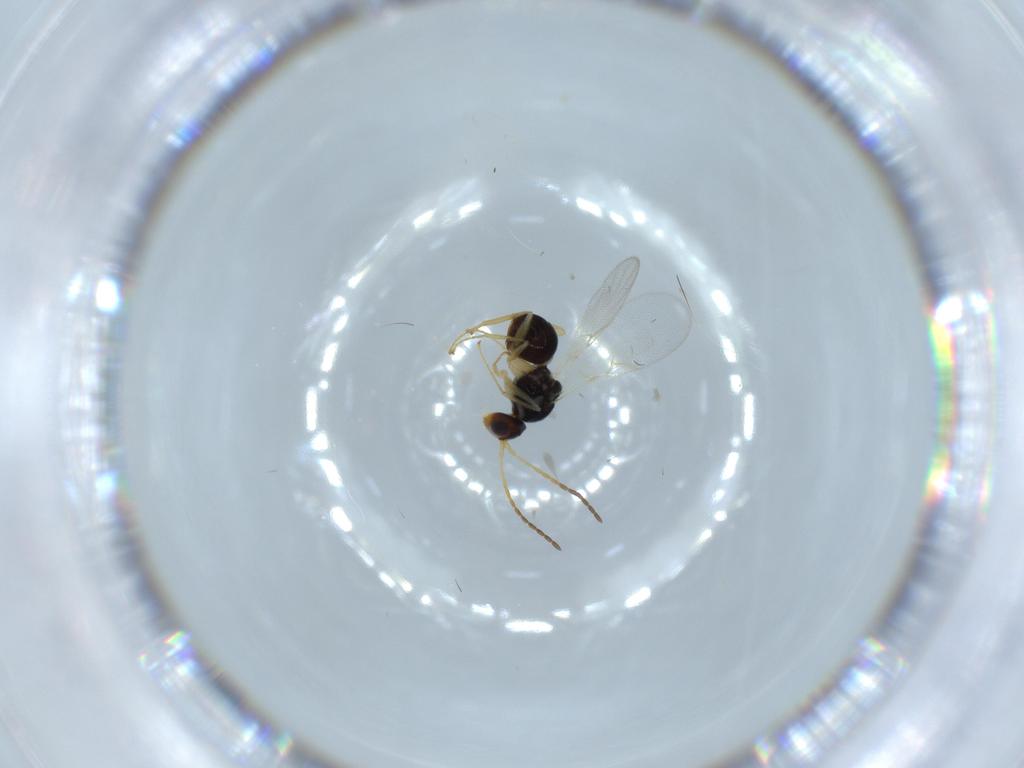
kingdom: Animalia
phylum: Arthropoda
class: Insecta
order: Hymenoptera
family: Figitidae
